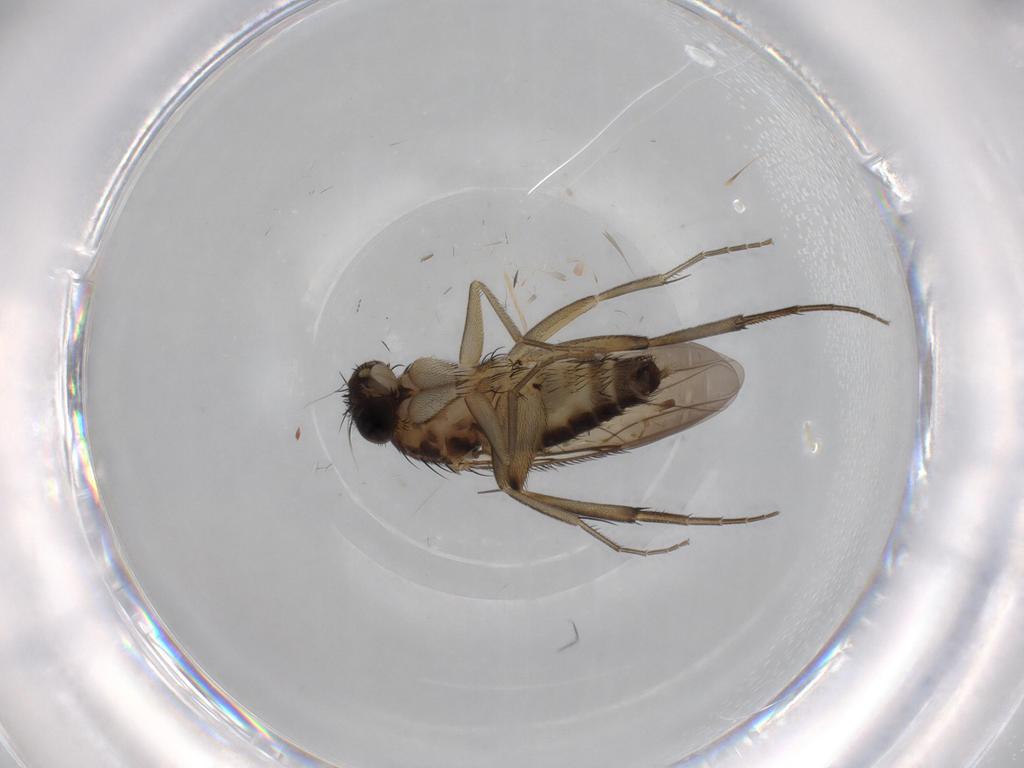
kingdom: Animalia
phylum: Arthropoda
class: Insecta
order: Diptera
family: Phoridae
